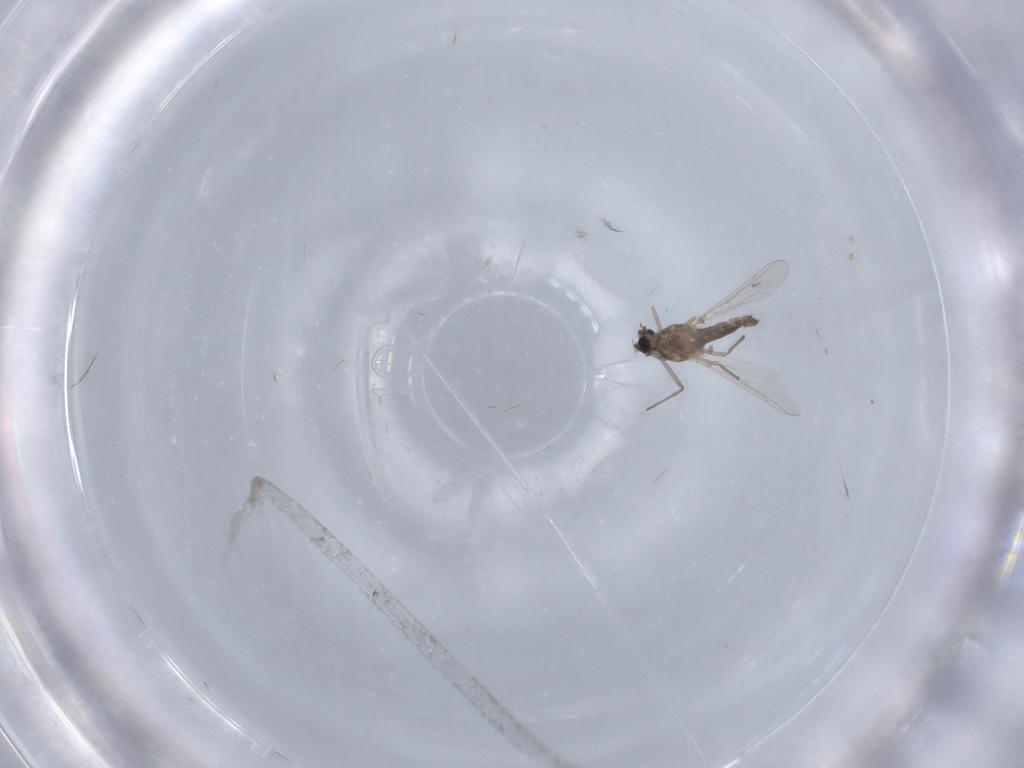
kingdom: Animalia
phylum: Arthropoda
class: Insecta
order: Diptera
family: Chironomidae
